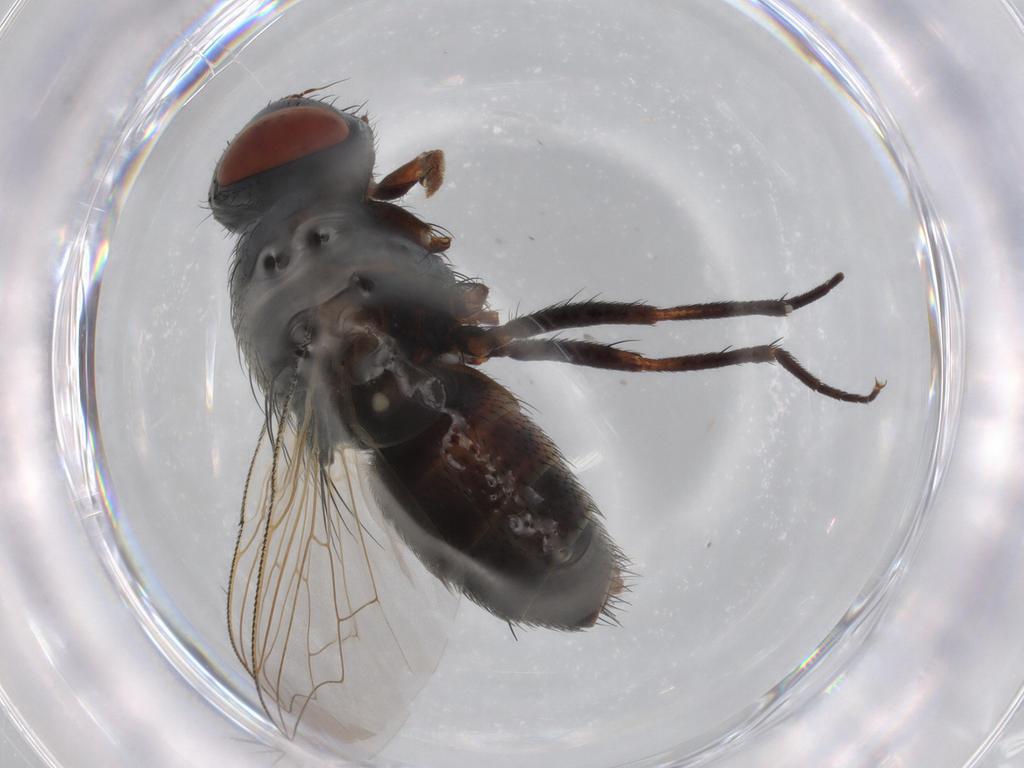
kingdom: Animalia
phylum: Arthropoda
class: Insecta
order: Diptera
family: Sarcophagidae
